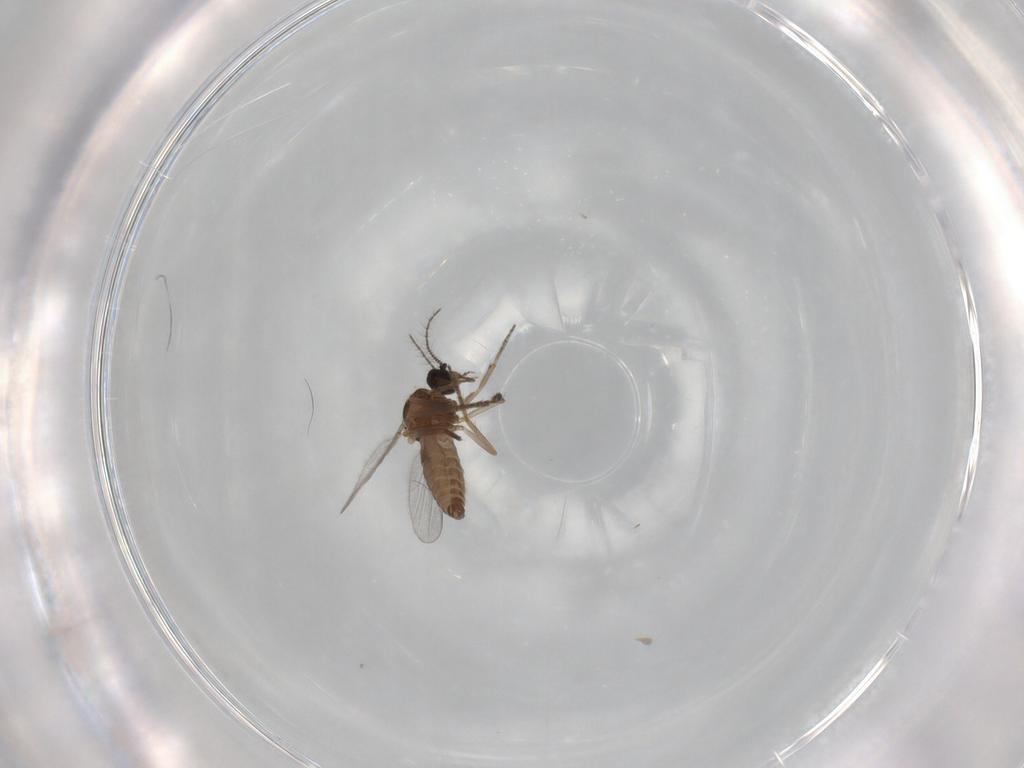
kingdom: Animalia
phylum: Arthropoda
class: Insecta
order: Diptera
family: Ceratopogonidae
